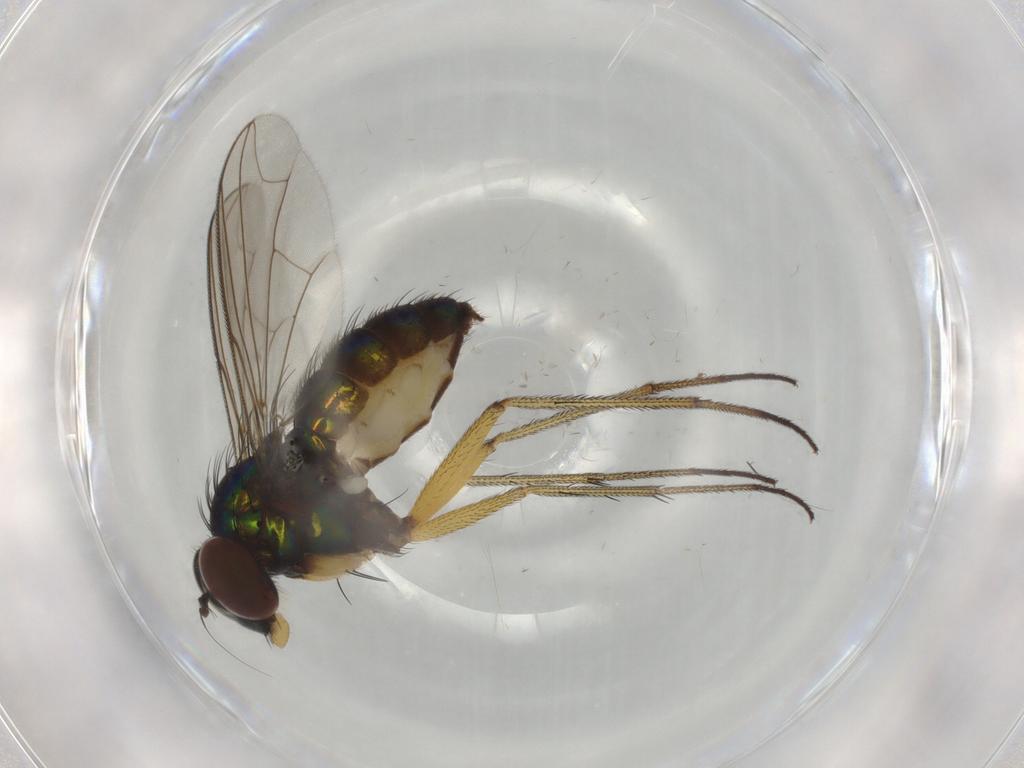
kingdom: Animalia
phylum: Arthropoda
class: Insecta
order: Diptera
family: Dolichopodidae
